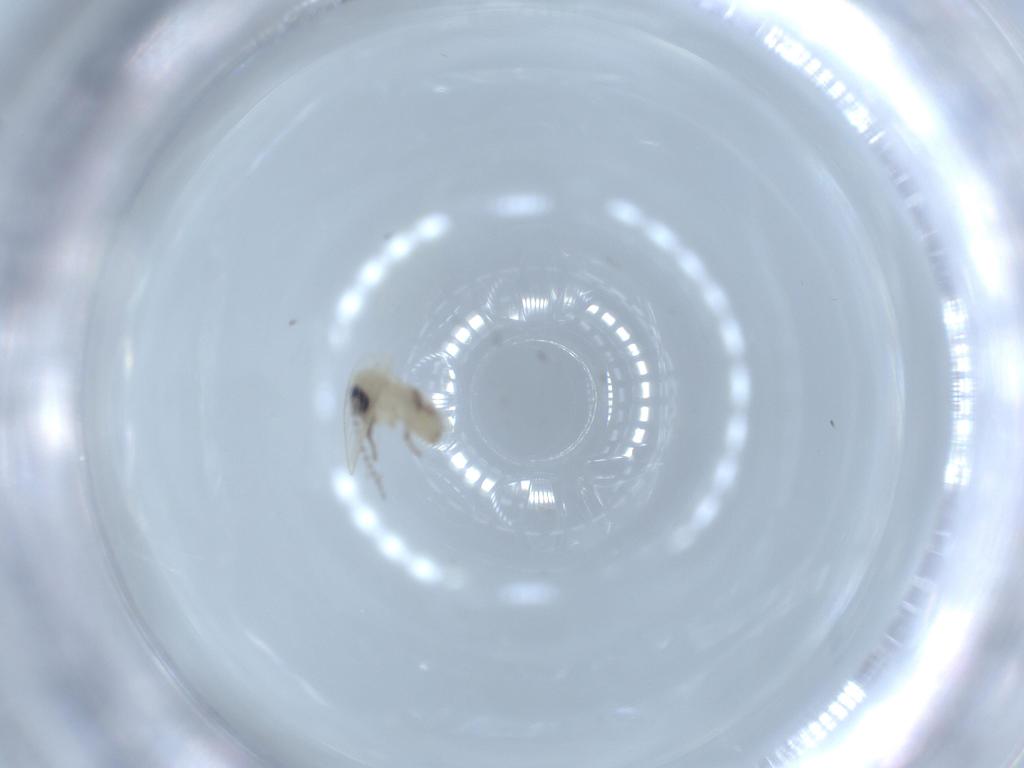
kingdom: Animalia
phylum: Arthropoda
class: Insecta
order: Diptera
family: Psychodidae
